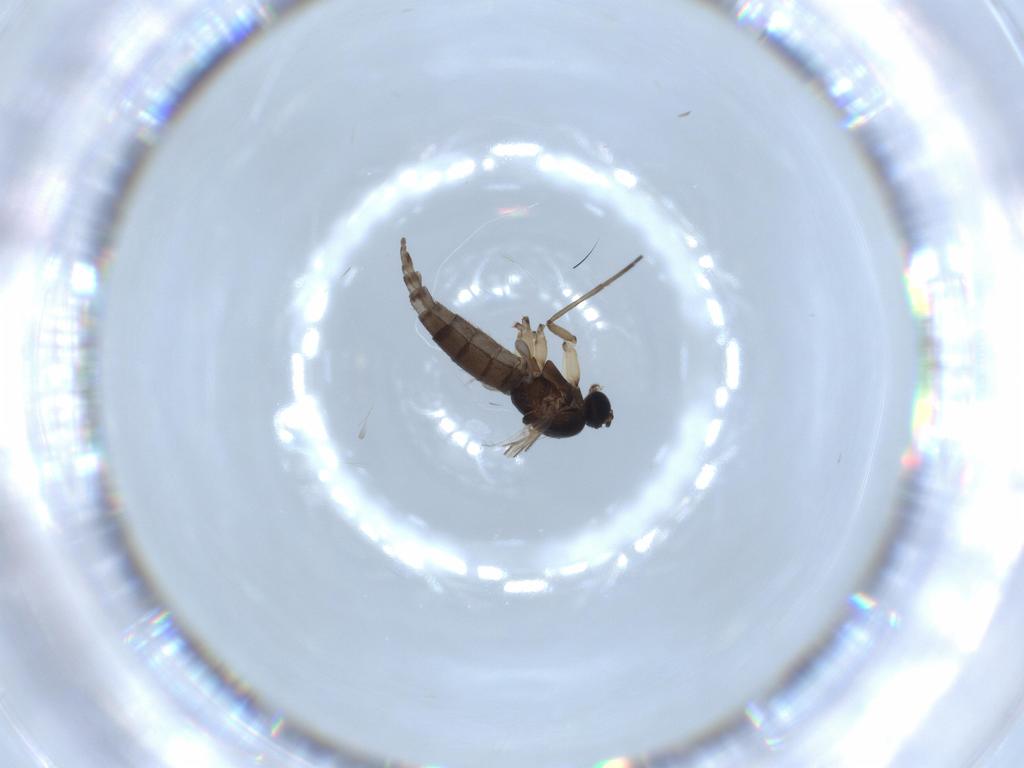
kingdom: Animalia
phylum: Arthropoda
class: Insecta
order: Diptera
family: Sciaridae
